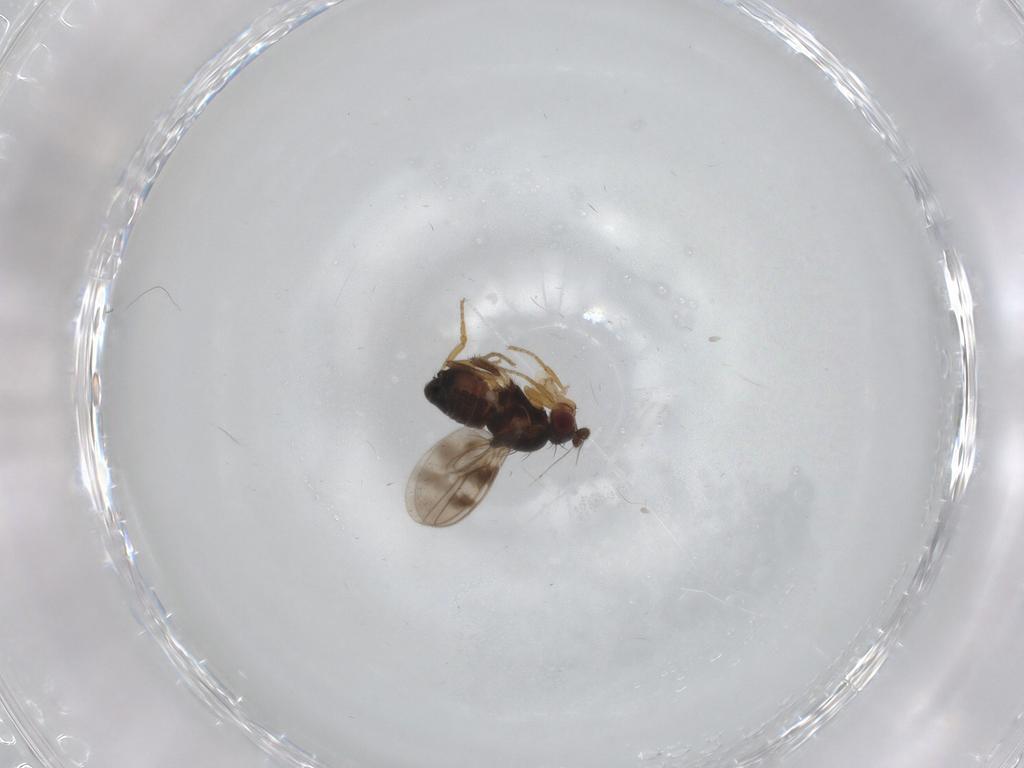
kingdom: Animalia
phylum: Arthropoda
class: Insecta
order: Diptera
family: Sphaeroceridae
